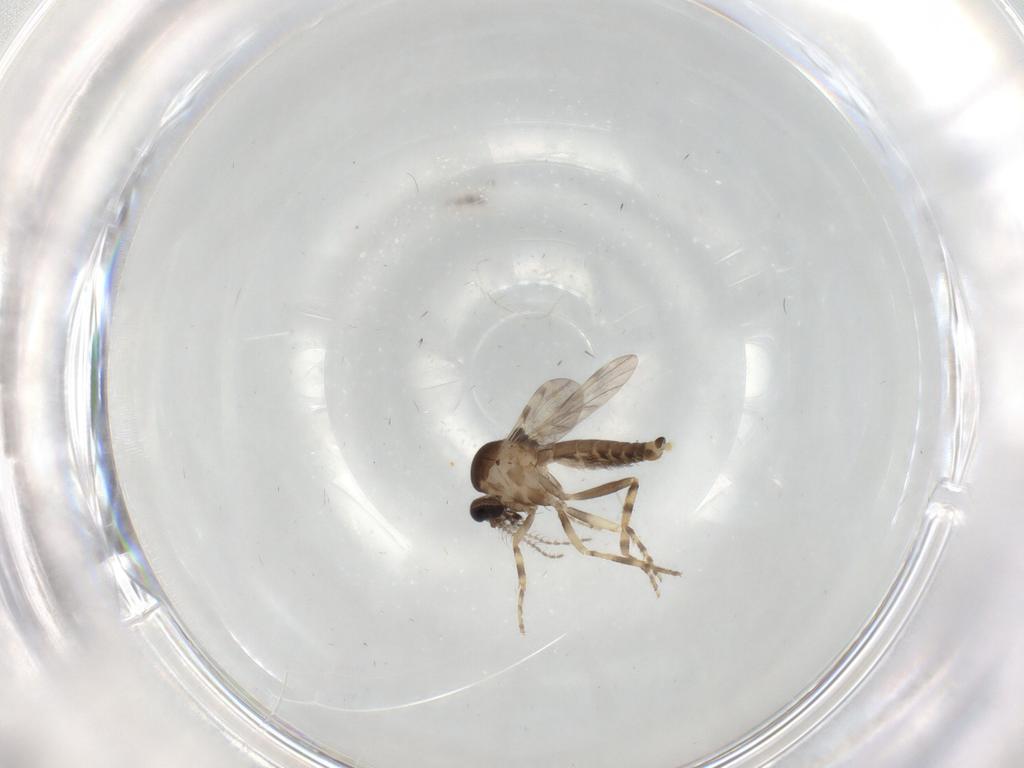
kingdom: Animalia
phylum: Arthropoda
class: Insecta
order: Diptera
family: Ceratopogonidae
